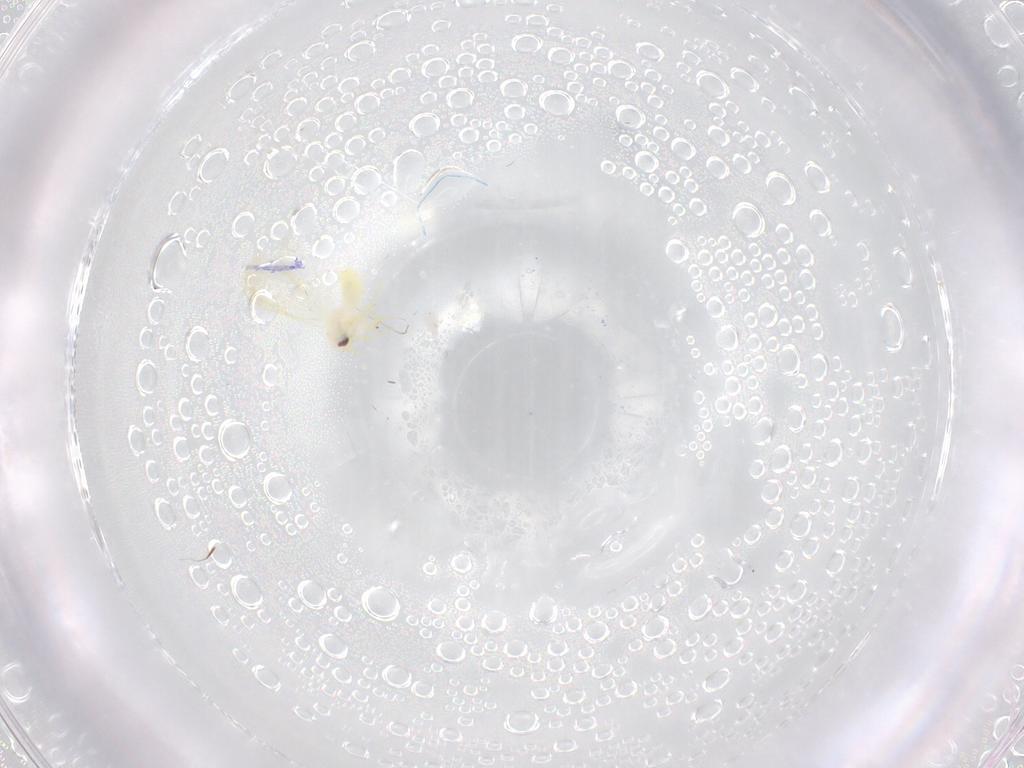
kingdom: Animalia
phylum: Arthropoda
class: Insecta
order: Hemiptera
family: Aleyrodidae
